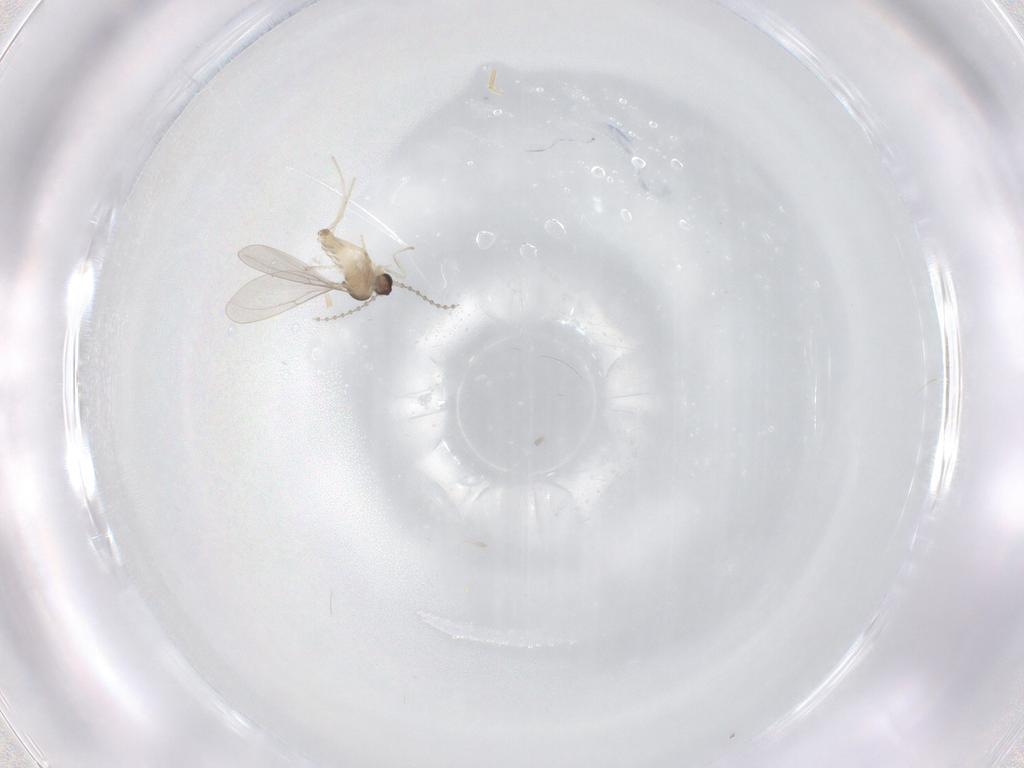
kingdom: Animalia
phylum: Arthropoda
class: Insecta
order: Diptera
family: Cecidomyiidae
